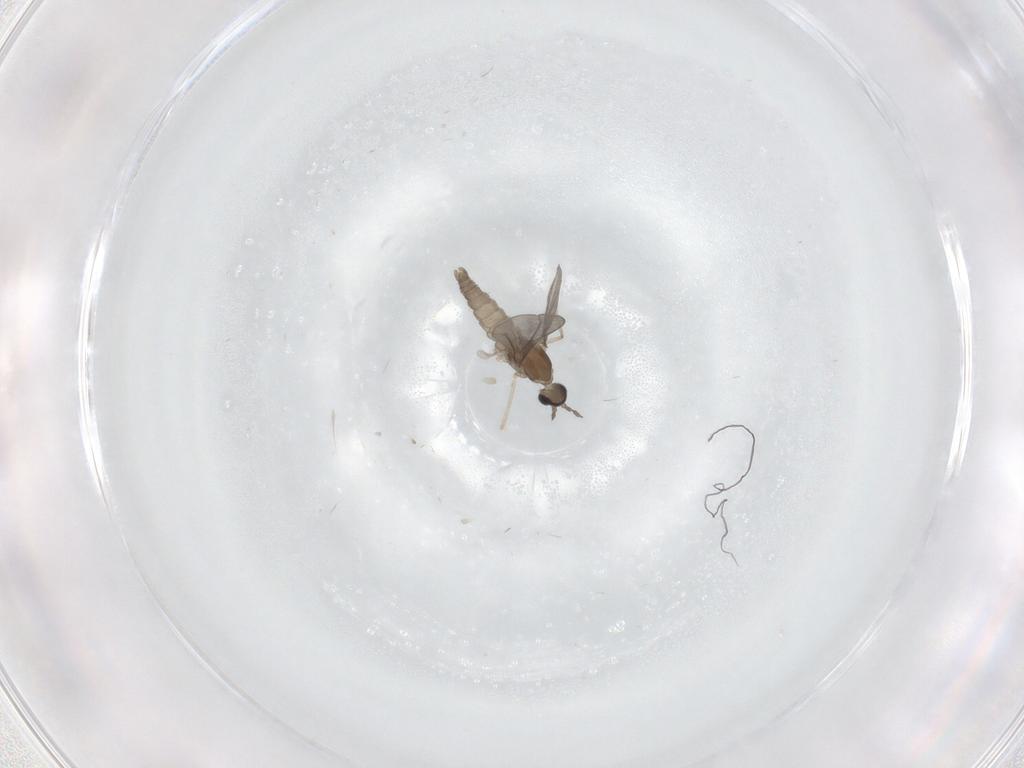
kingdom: Animalia
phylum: Arthropoda
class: Insecta
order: Diptera
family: Cecidomyiidae
